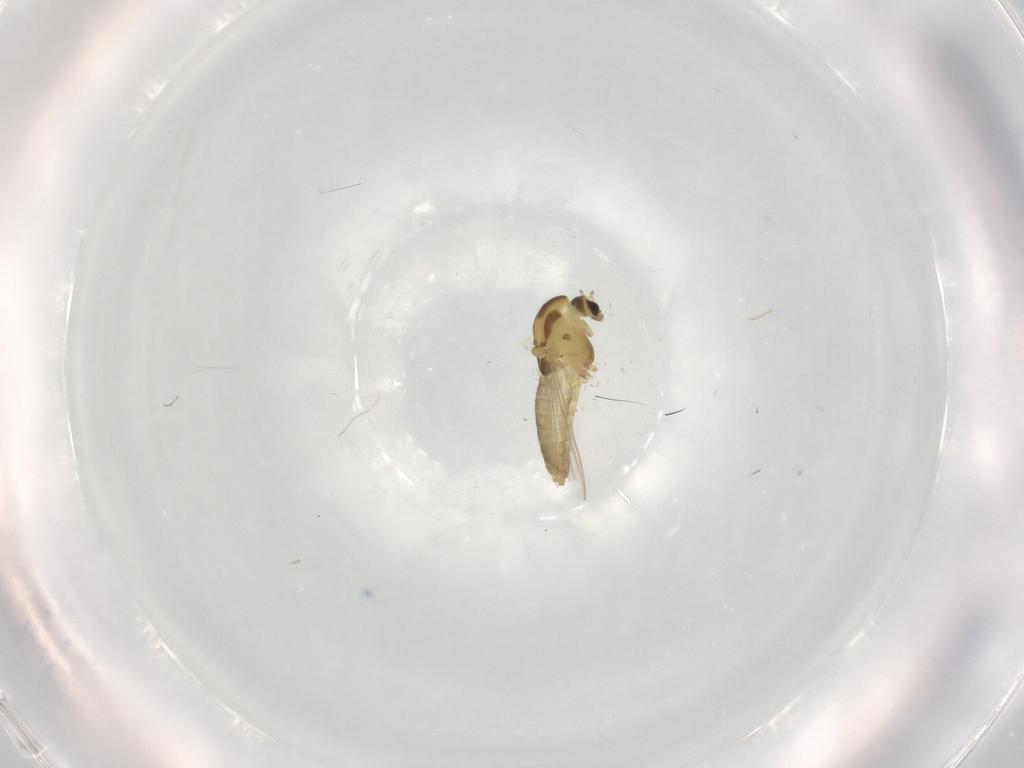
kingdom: Animalia
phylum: Arthropoda
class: Insecta
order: Diptera
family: Chironomidae
